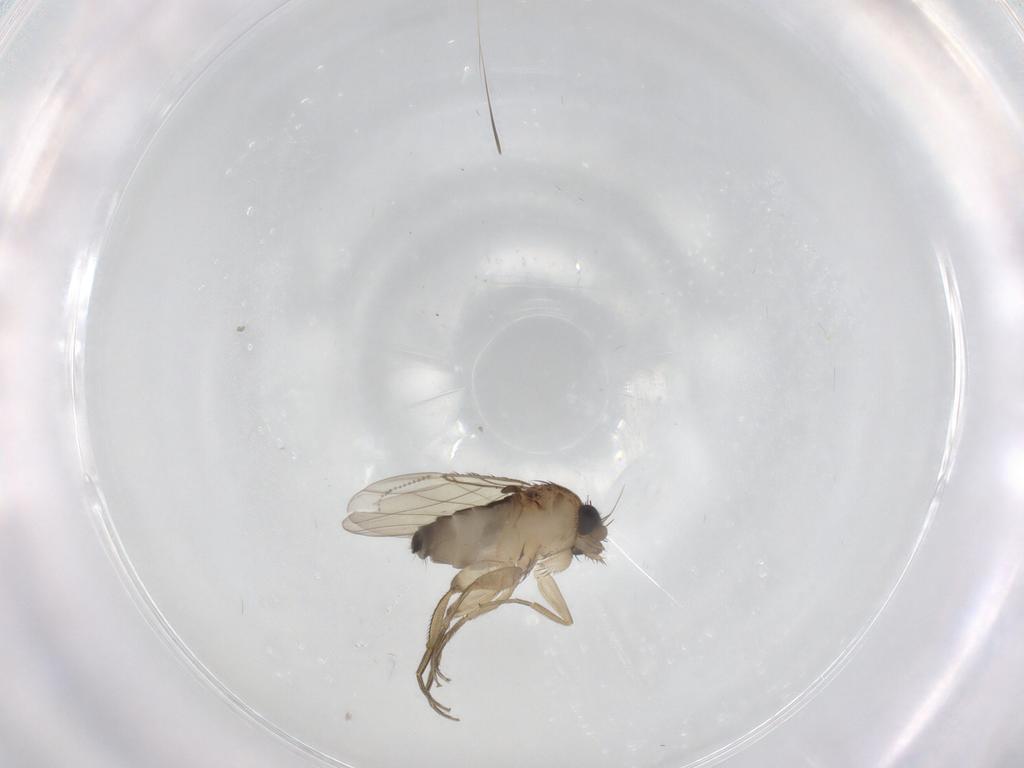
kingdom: Animalia
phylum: Arthropoda
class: Insecta
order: Diptera
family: Phoridae
